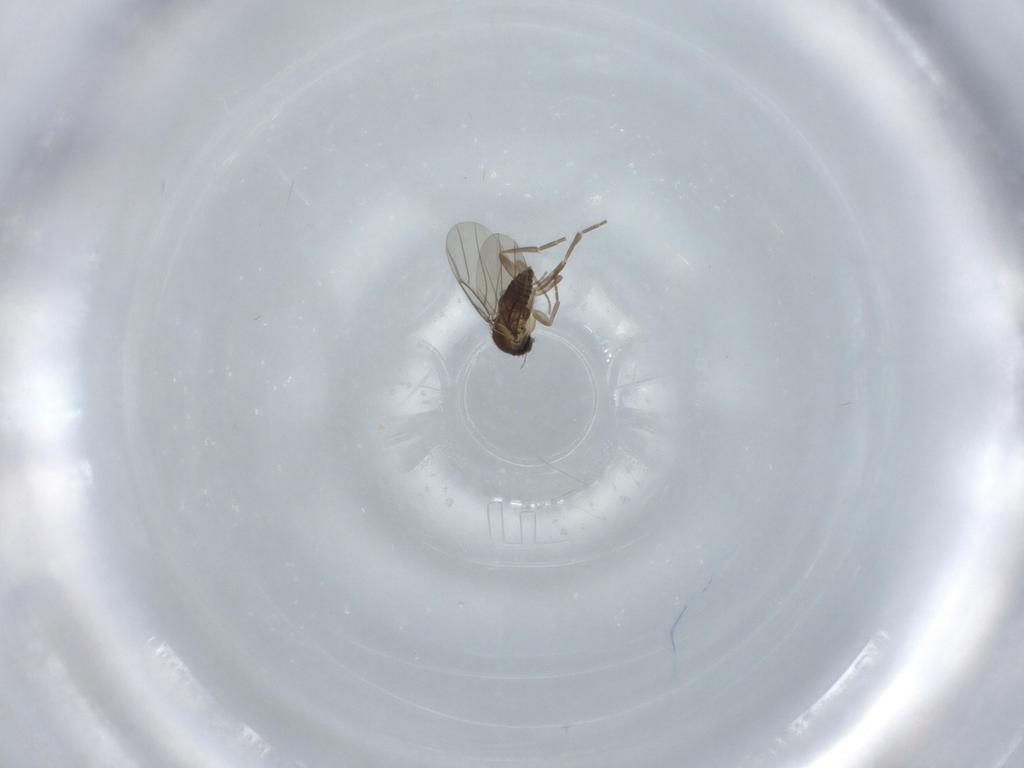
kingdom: Animalia
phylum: Arthropoda
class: Insecta
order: Diptera
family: Phoridae
